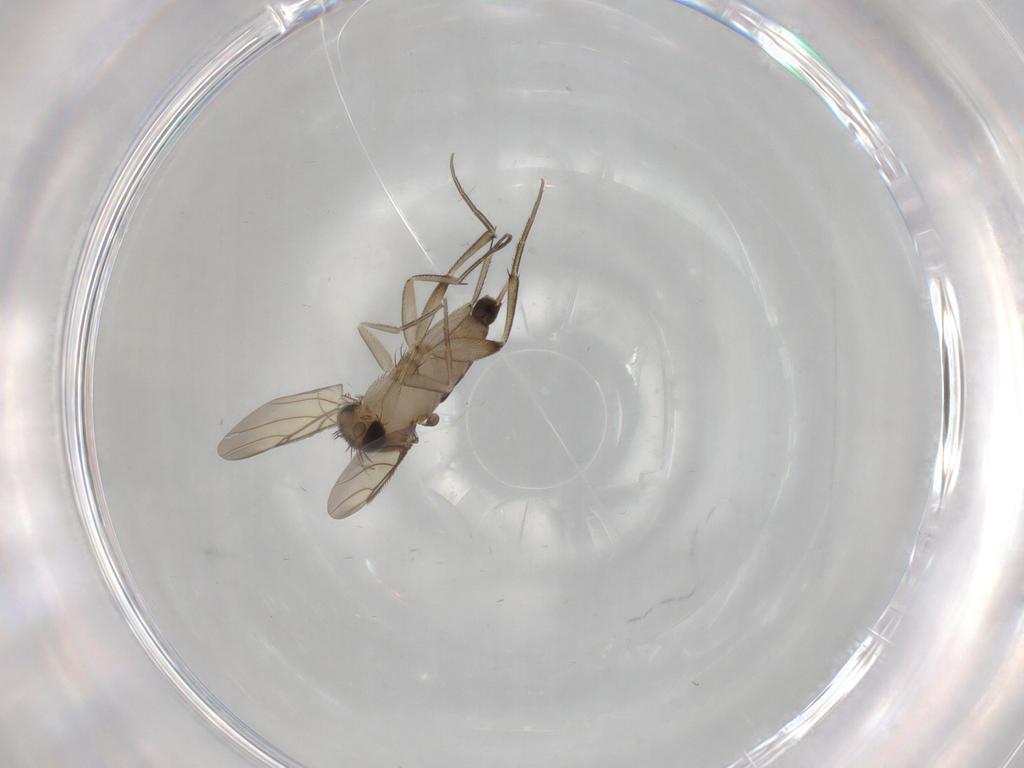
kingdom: Animalia
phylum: Arthropoda
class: Insecta
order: Diptera
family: Phoridae
